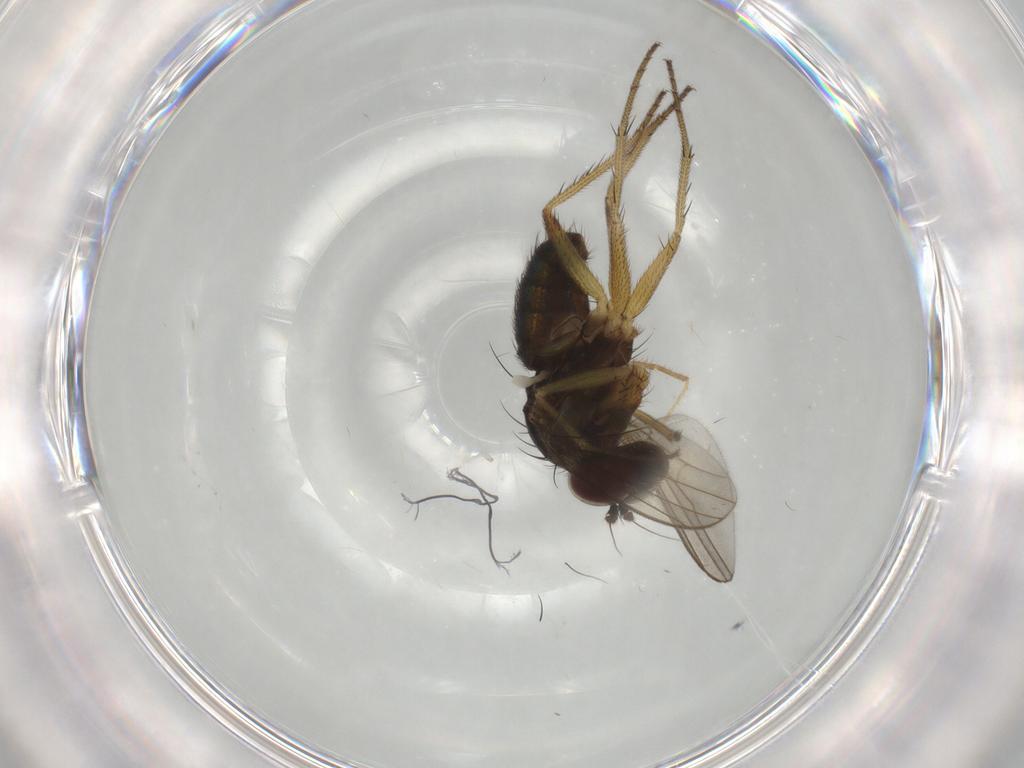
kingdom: Animalia
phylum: Arthropoda
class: Insecta
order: Diptera
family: Dolichopodidae
